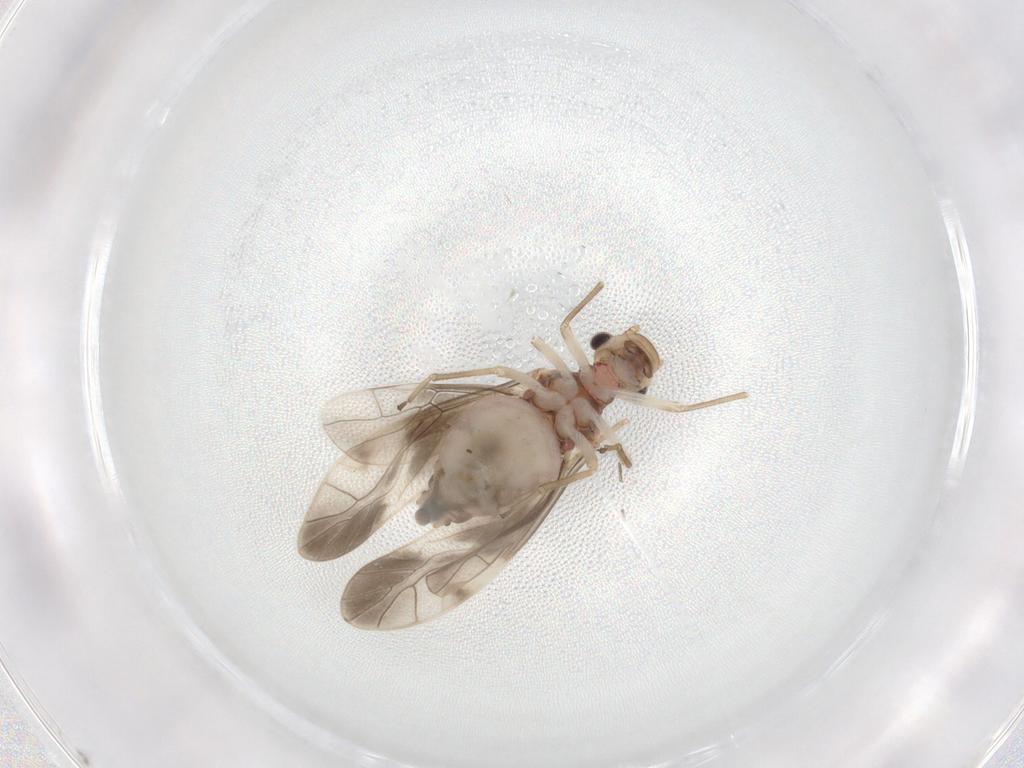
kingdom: Animalia
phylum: Arthropoda
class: Insecta
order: Psocodea
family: Caeciliusidae
